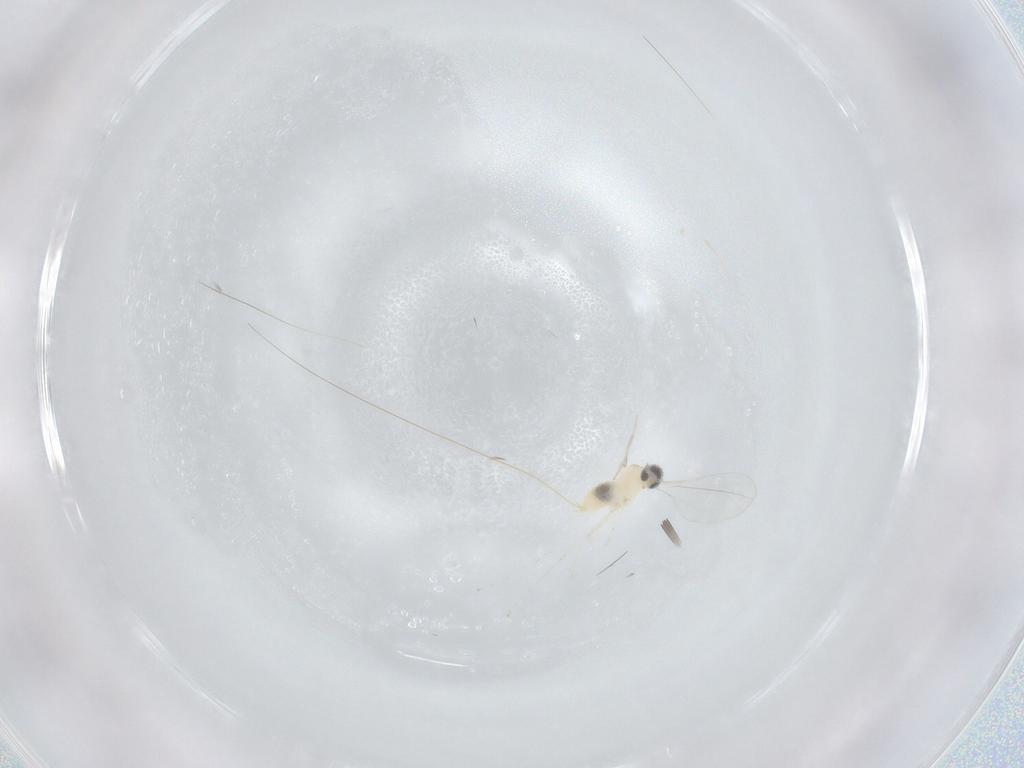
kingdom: Animalia
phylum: Arthropoda
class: Insecta
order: Diptera
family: Cecidomyiidae
